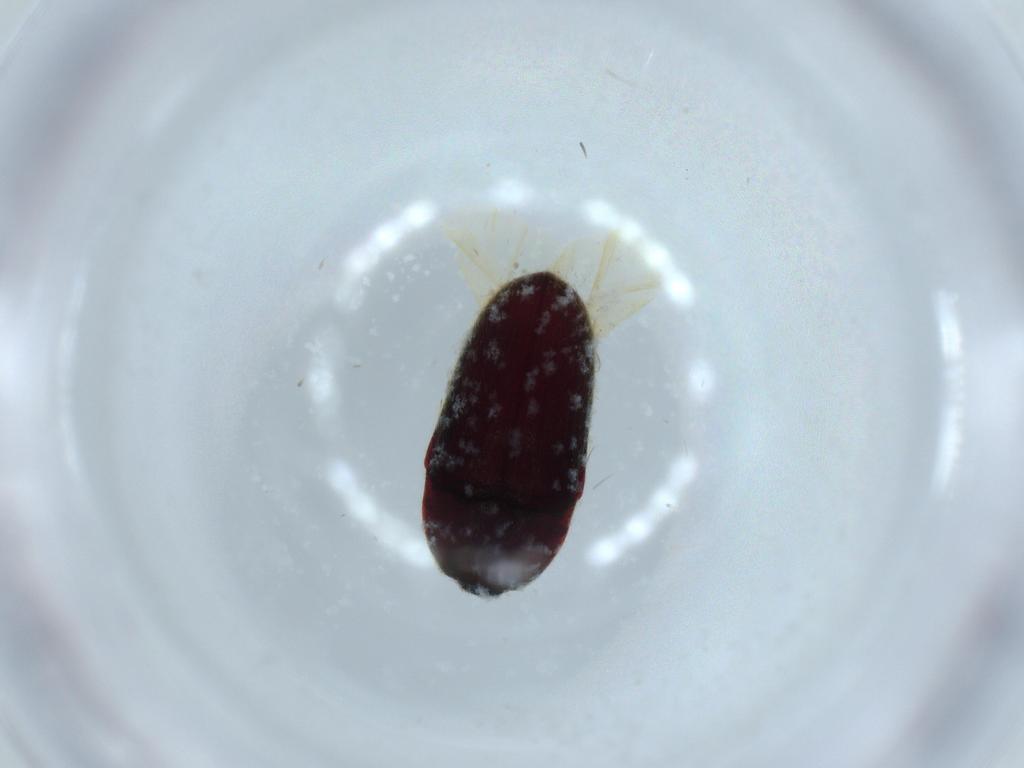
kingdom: Animalia
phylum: Arthropoda
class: Insecta
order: Coleoptera
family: Throscidae
